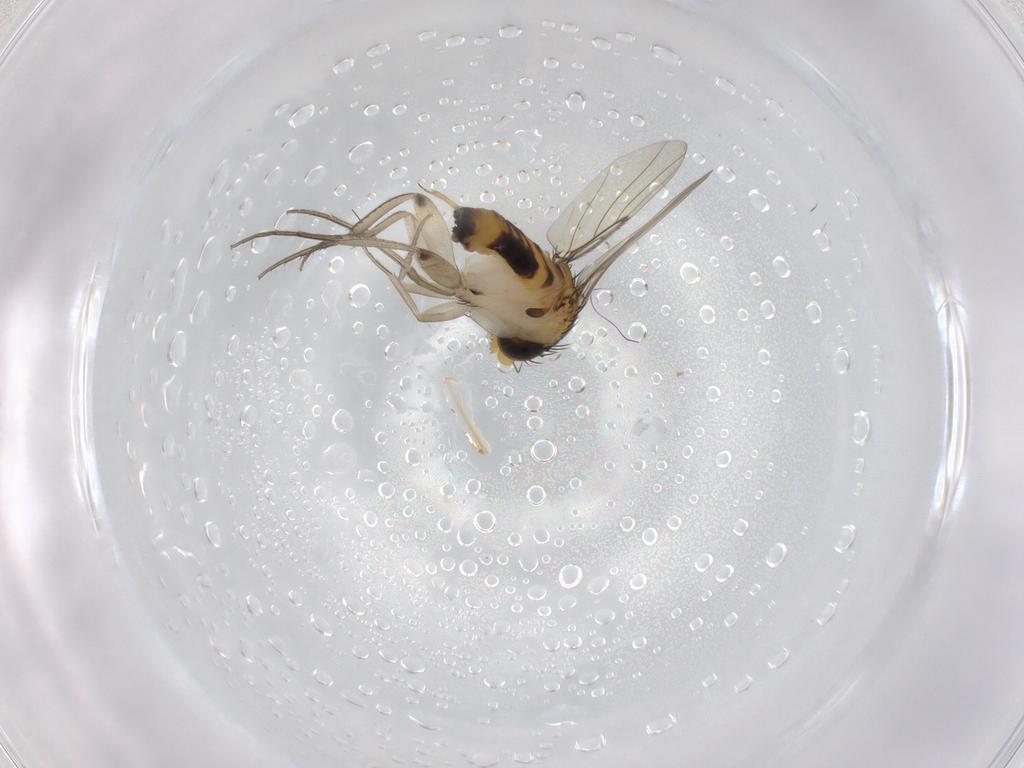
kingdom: Animalia
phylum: Arthropoda
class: Insecta
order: Diptera
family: Phoridae
